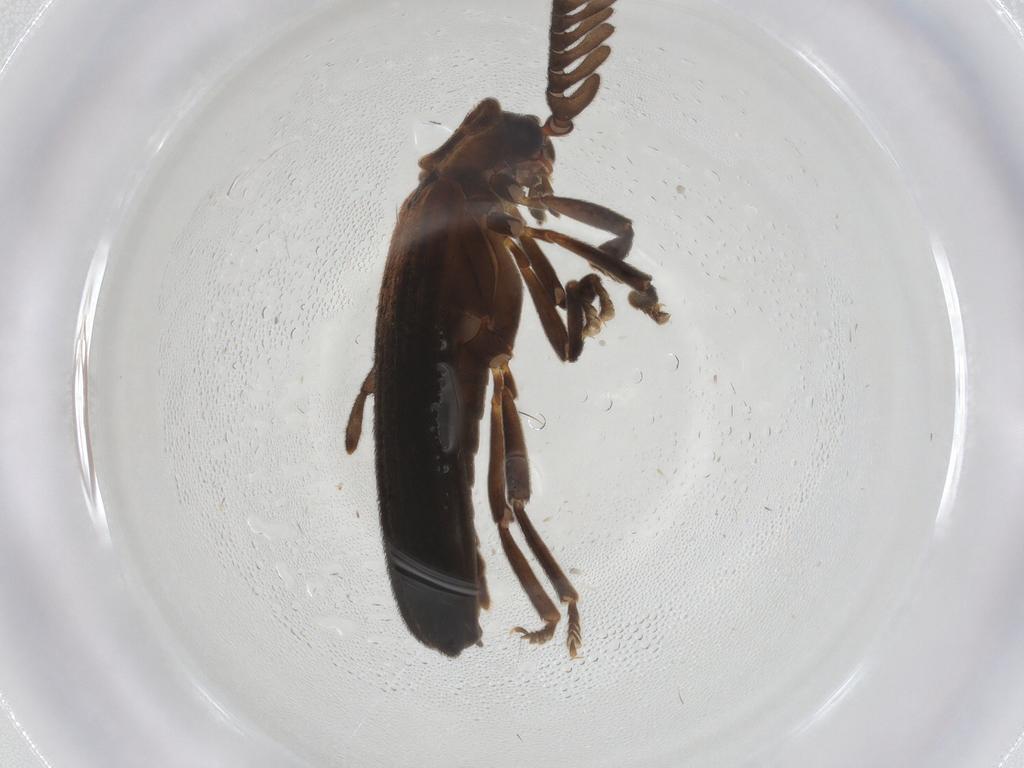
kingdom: Animalia
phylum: Arthropoda
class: Insecta
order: Coleoptera
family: Lycidae
